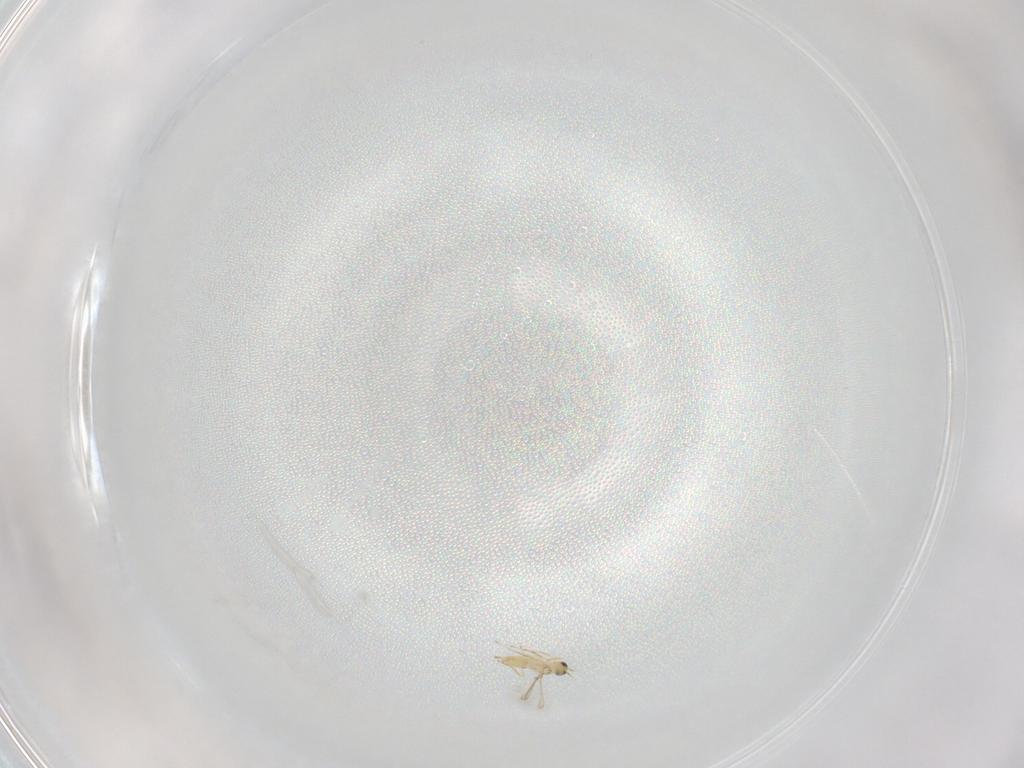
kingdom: Animalia
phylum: Arthropoda
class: Insecta
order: Hymenoptera
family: Mymaridae
